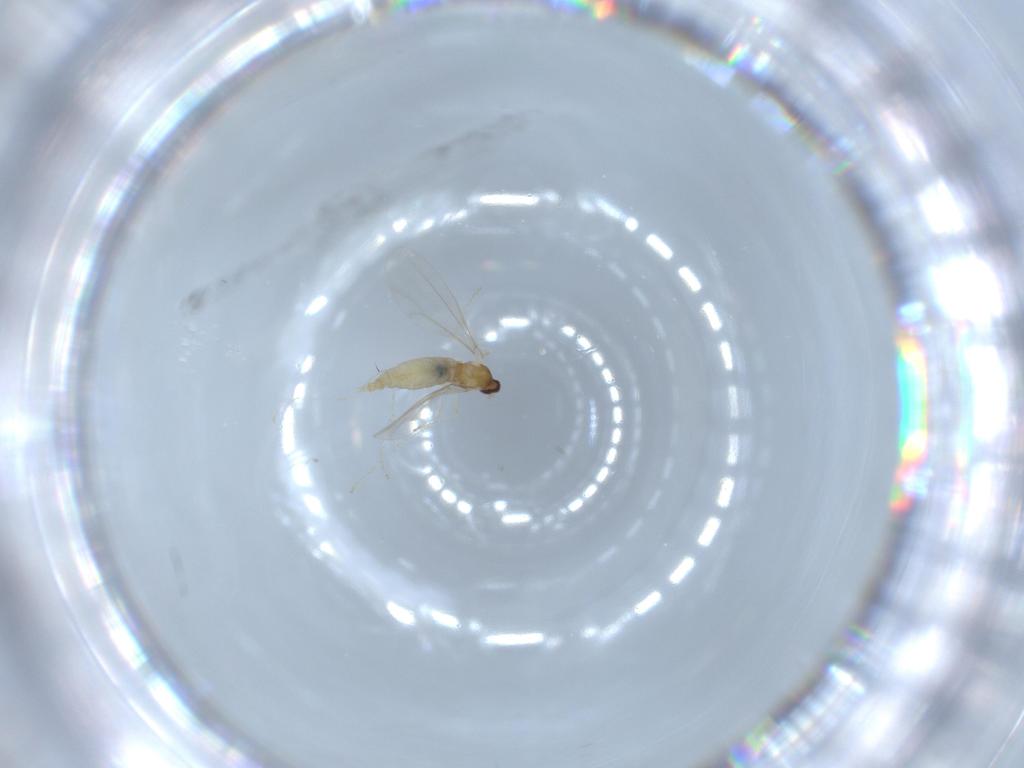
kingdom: Animalia
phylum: Arthropoda
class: Insecta
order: Diptera
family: Cecidomyiidae
